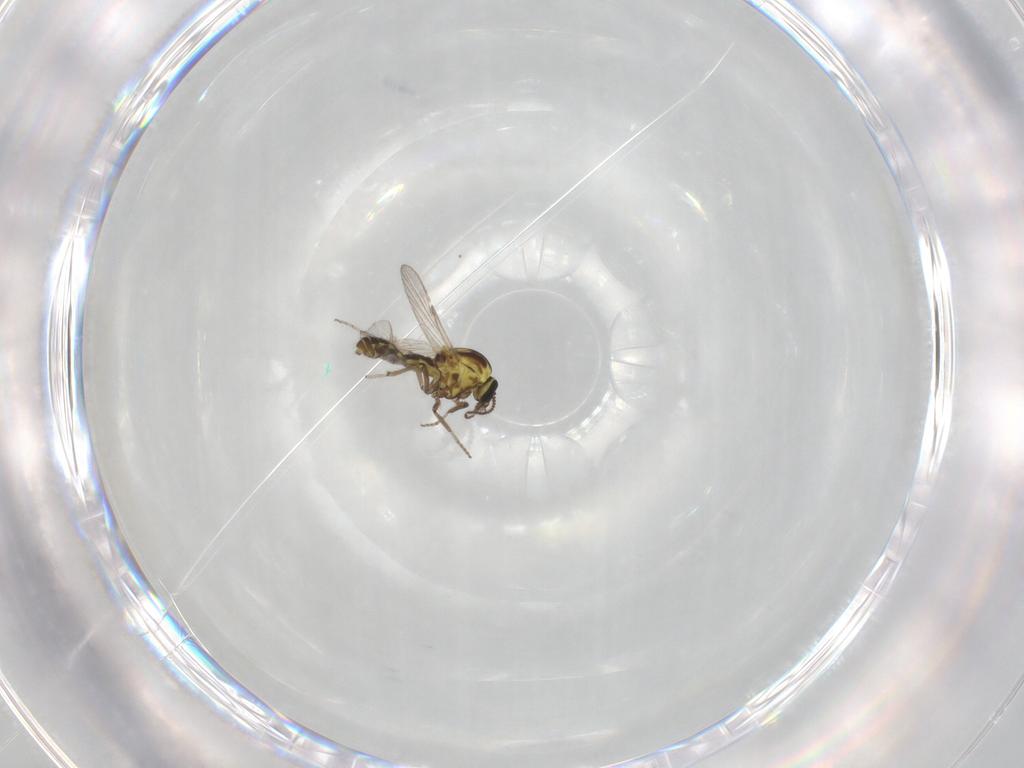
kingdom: Animalia
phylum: Arthropoda
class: Insecta
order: Diptera
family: Ceratopogonidae
